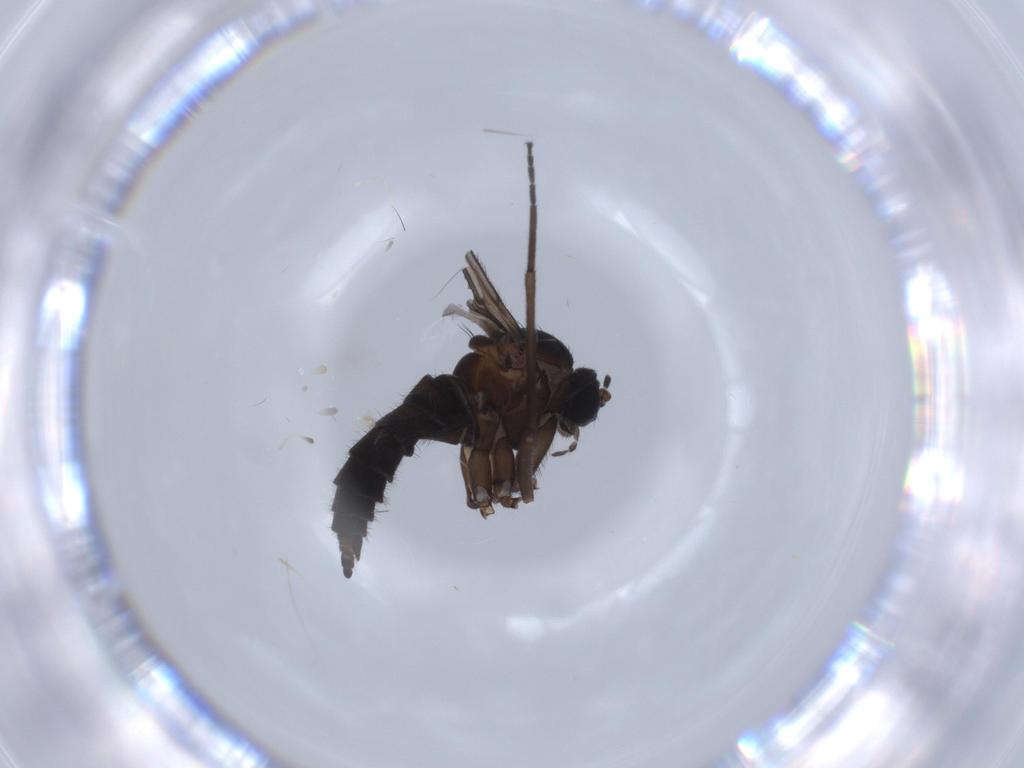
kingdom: Animalia
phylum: Arthropoda
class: Insecta
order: Diptera
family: Sciaridae
